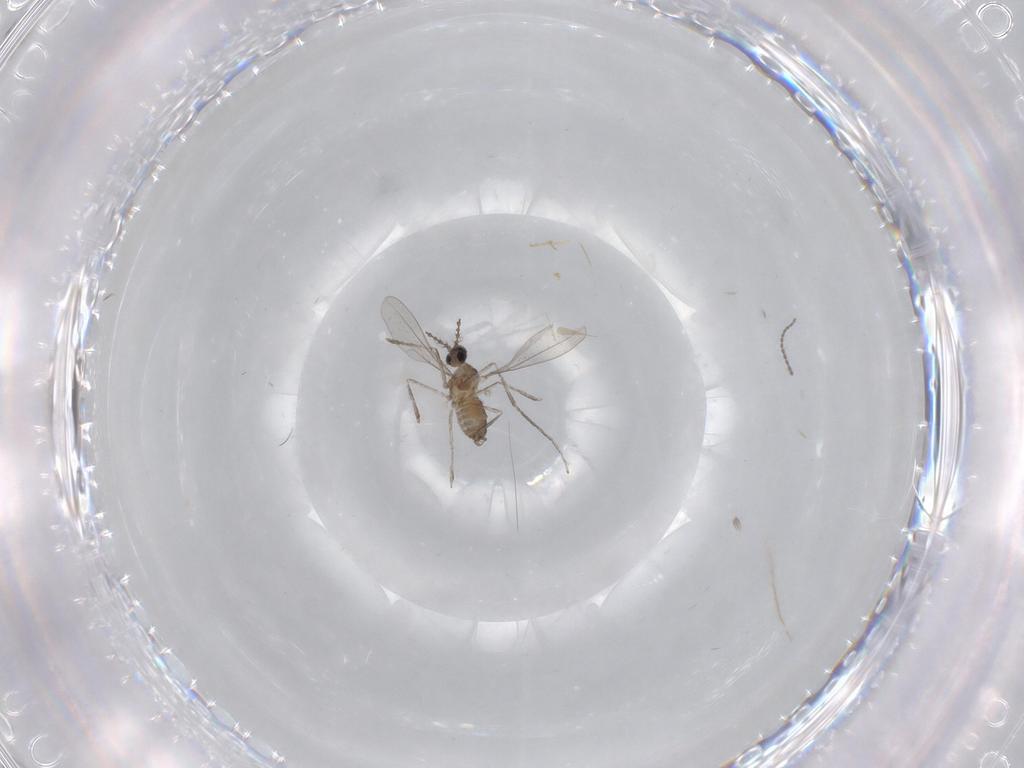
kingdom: Animalia
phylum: Arthropoda
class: Insecta
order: Diptera
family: Cecidomyiidae
